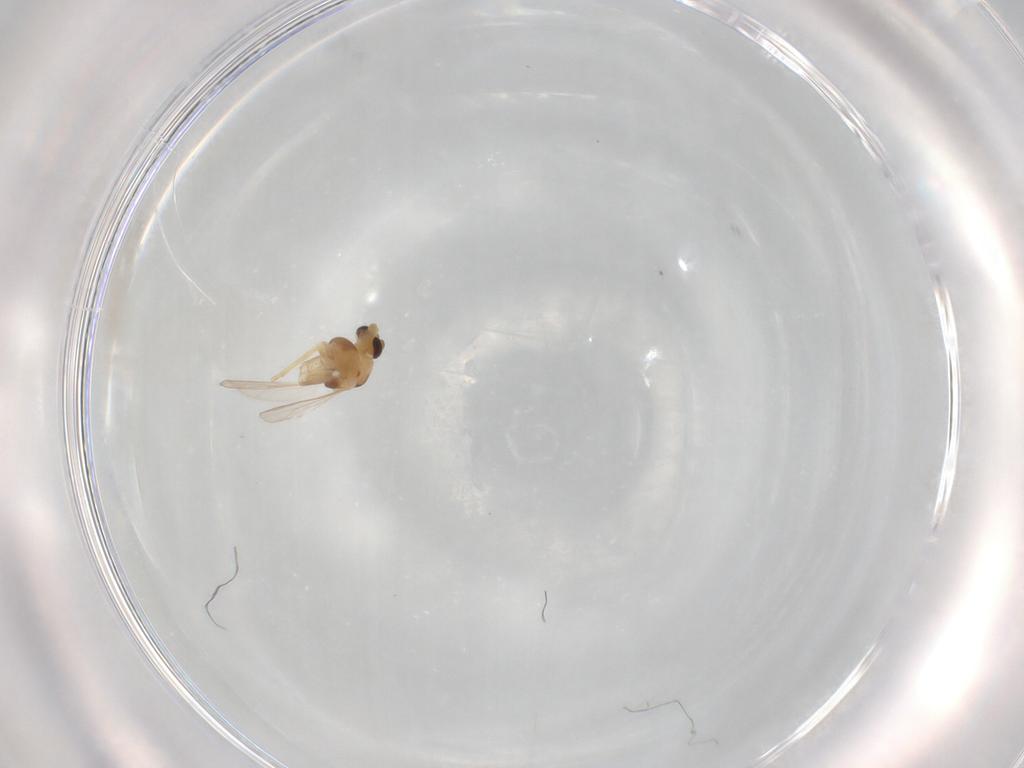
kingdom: Animalia
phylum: Arthropoda
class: Insecta
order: Diptera
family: Chironomidae
